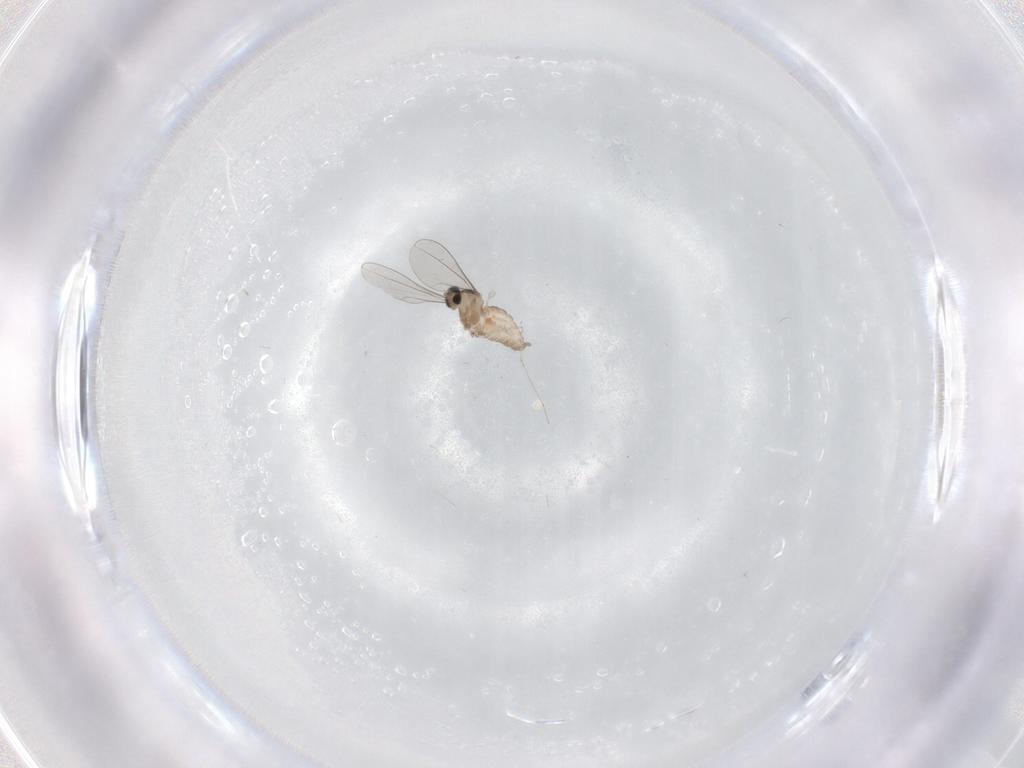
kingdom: Animalia
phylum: Arthropoda
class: Insecta
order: Diptera
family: Cecidomyiidae
